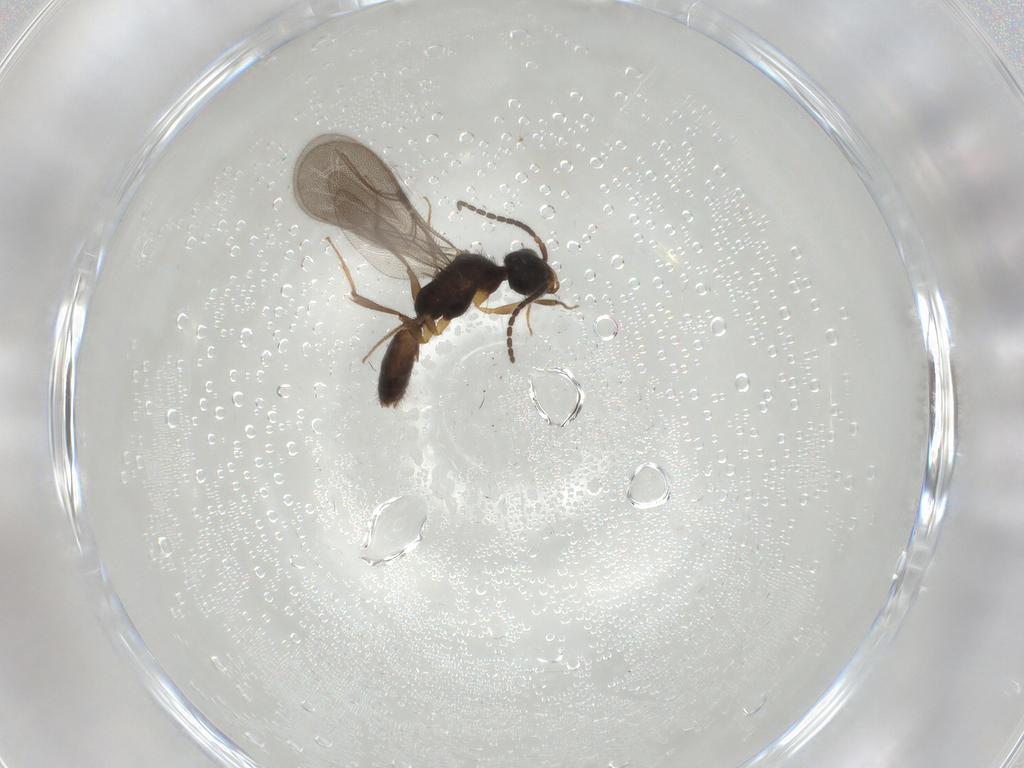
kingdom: Animalia
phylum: Arthropoda
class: Insecta
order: Hymenoptera
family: Bethylidae
